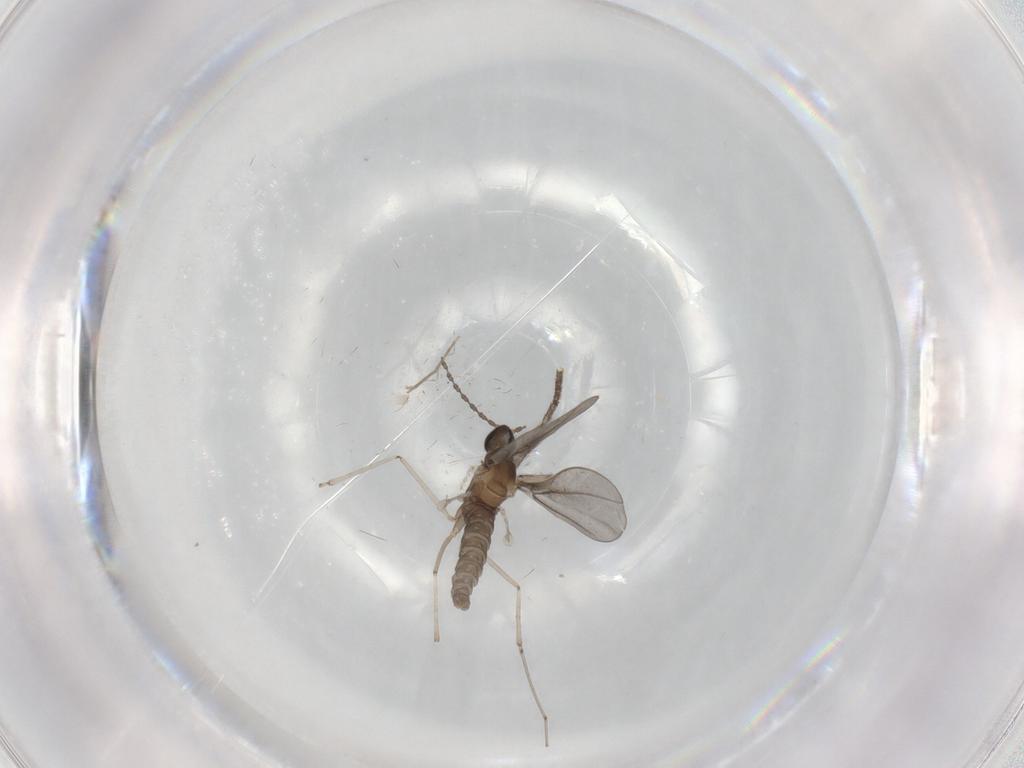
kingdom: Animalia
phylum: Arthropoda
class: Insecta
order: Diptera
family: Cecidomyiidae
